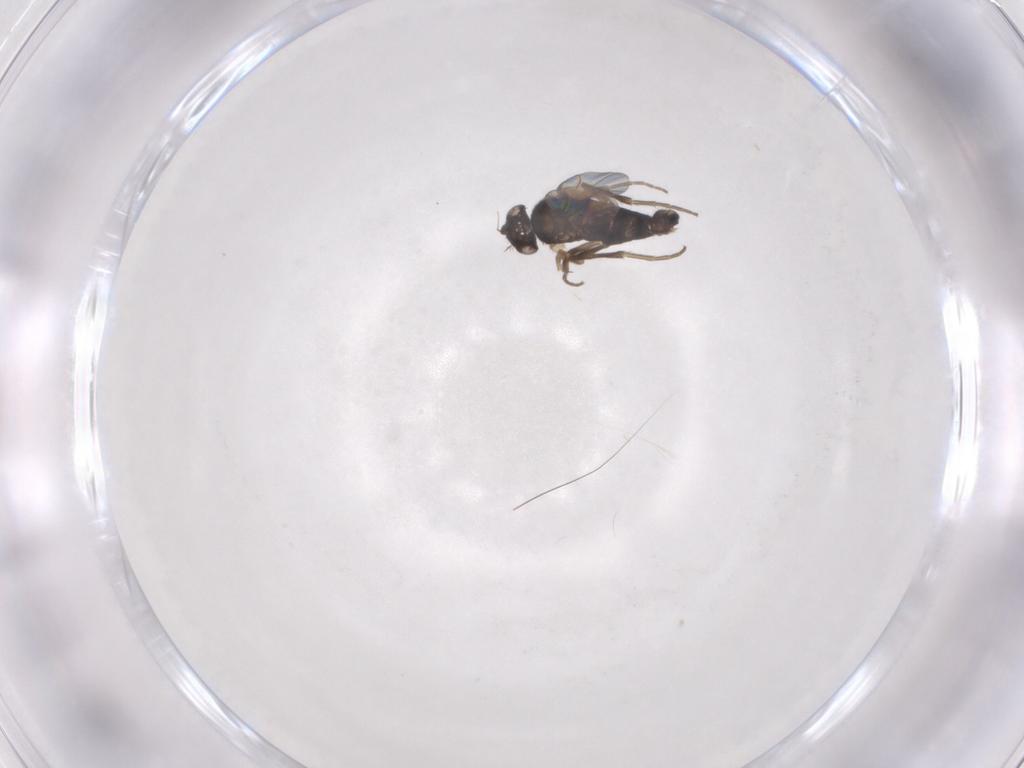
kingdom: Animalia
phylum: Arthropoda
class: Insecta
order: Diptera
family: Phoridae
